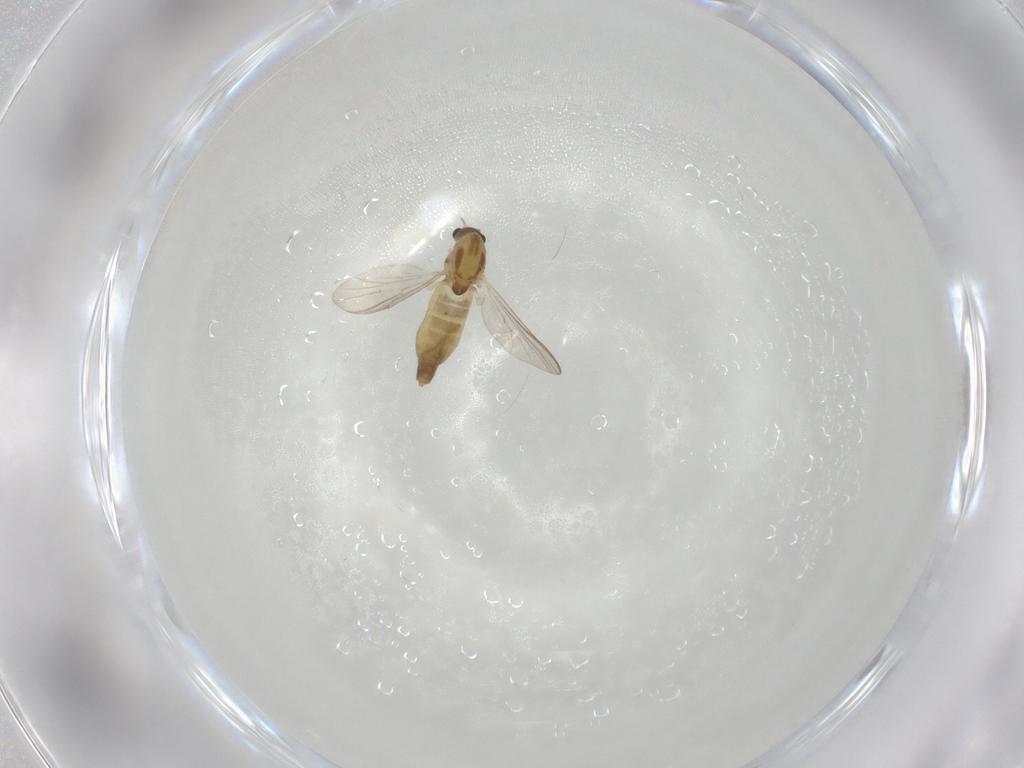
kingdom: Animalia
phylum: Arthropoda
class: Insecta
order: Diptera
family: Chironomidae
